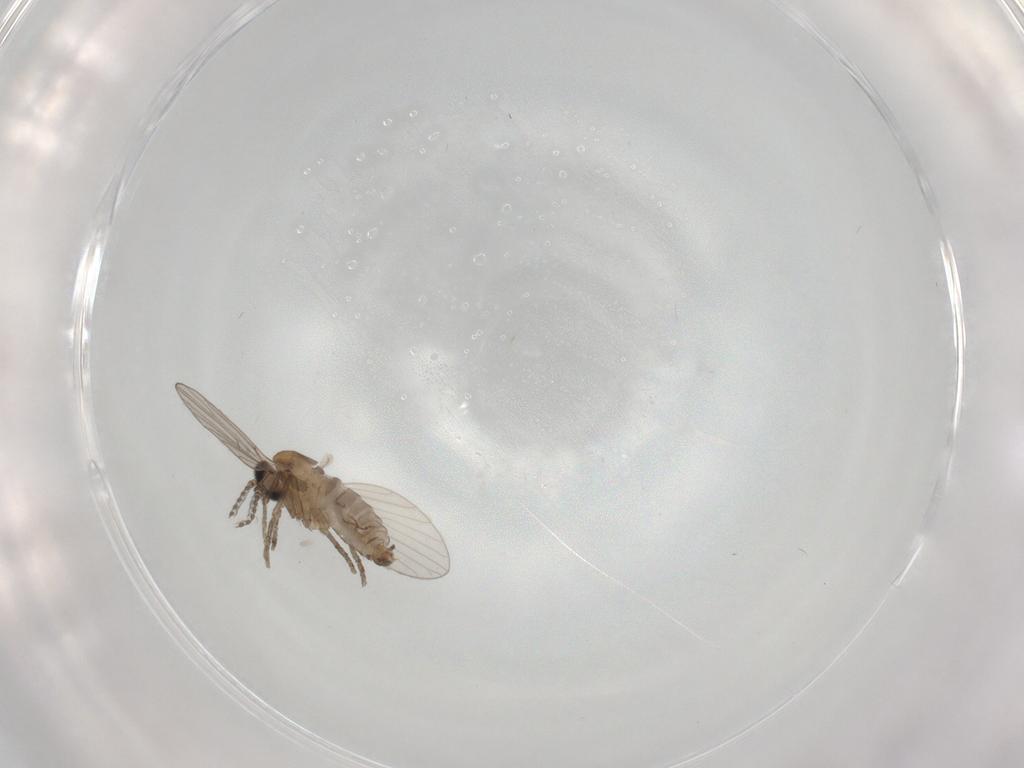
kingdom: Animalia
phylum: Arthropoda
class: Insecta
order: Diptera
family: Psychodidae
